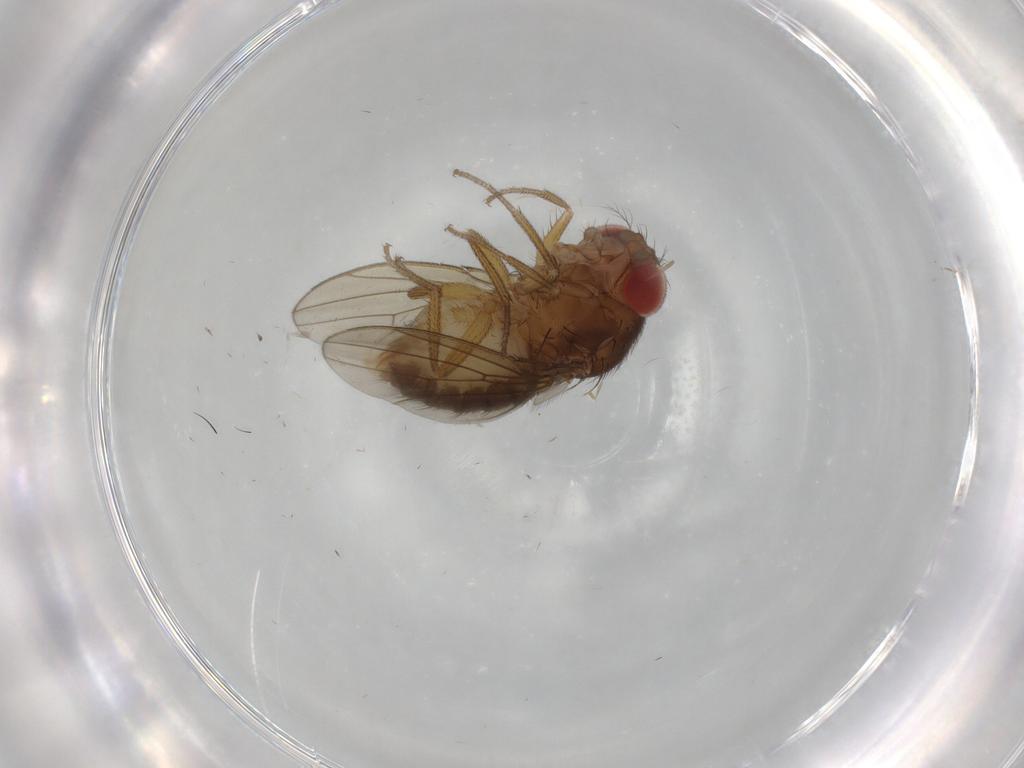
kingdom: Animalia
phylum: Arthropoda
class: Insecta
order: Diptera
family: Drosophilidae
